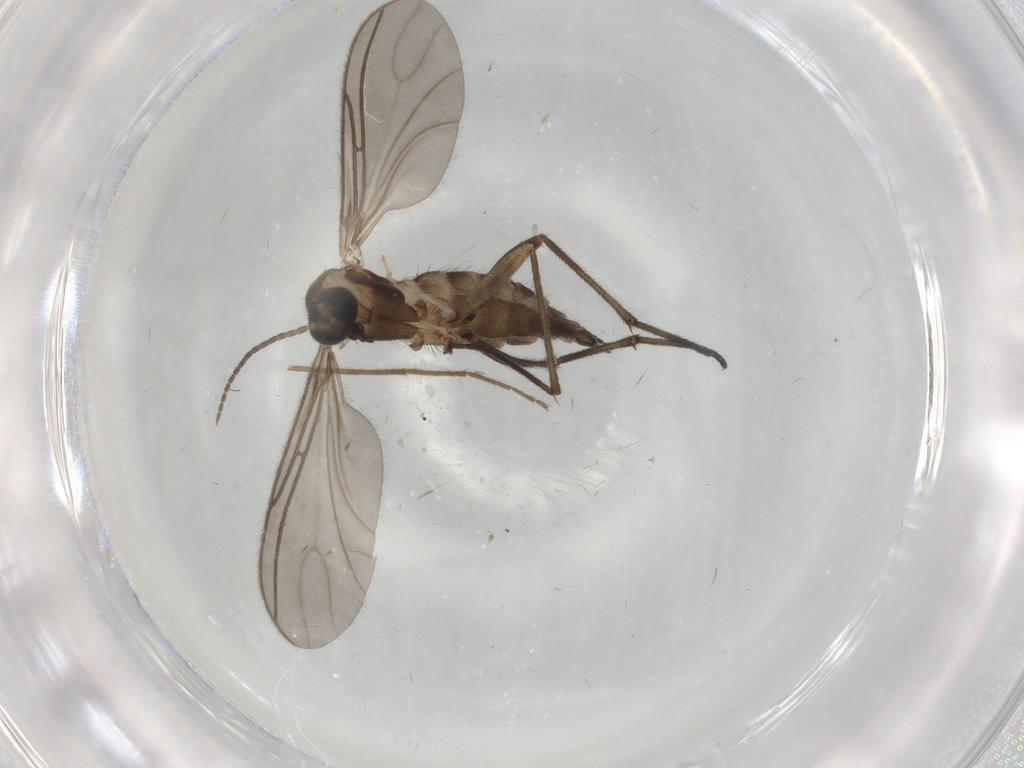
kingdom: Animalia
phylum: Arthropoda
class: Insecta
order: Diptera
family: Sciaridae
